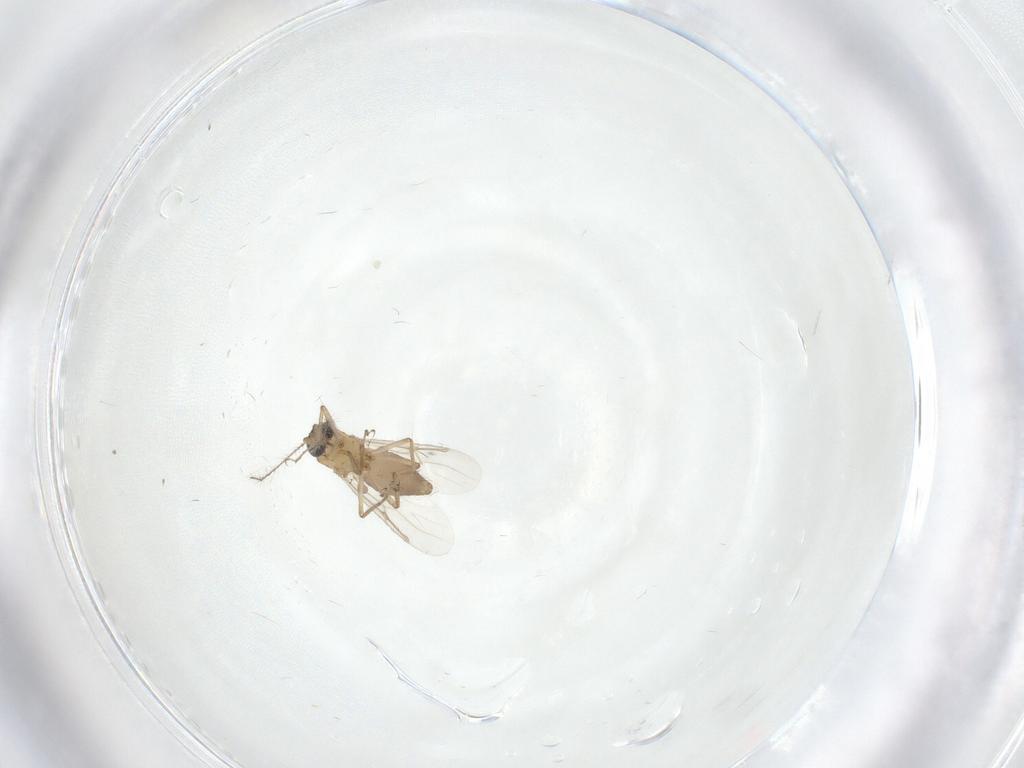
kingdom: Animalia
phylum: Arthropoda
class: Insecta
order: Diptera
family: Ceratopogonidae
